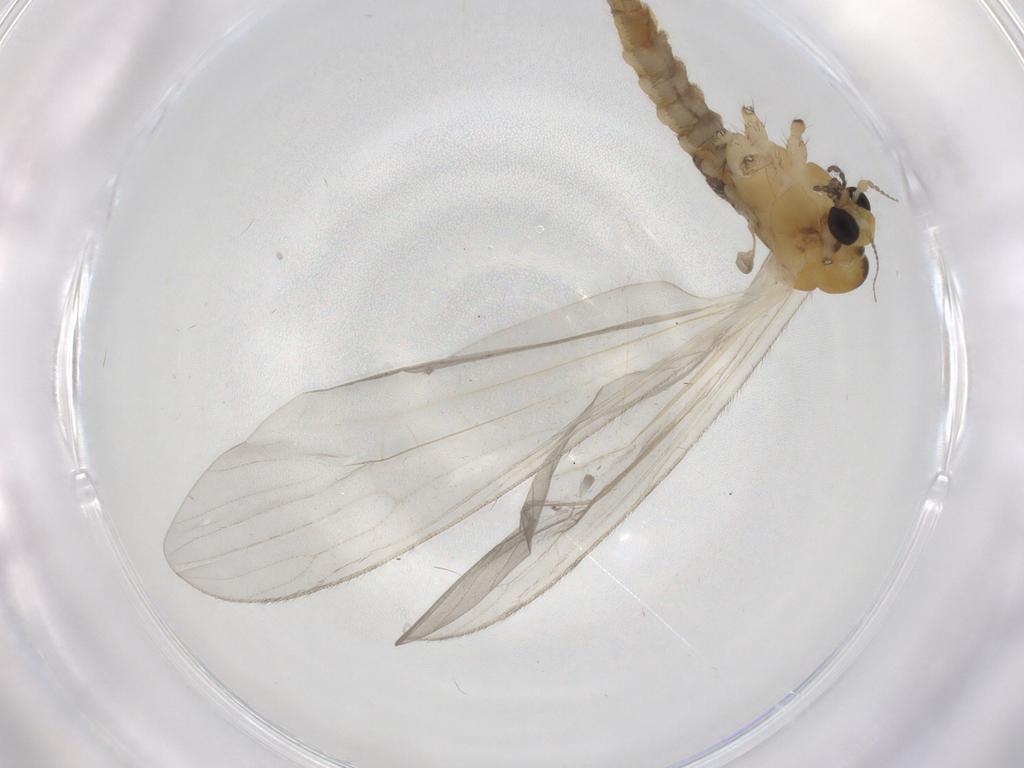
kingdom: Animalia
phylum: Arthropoda
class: Insecta
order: Diptera
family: Limoniidae
